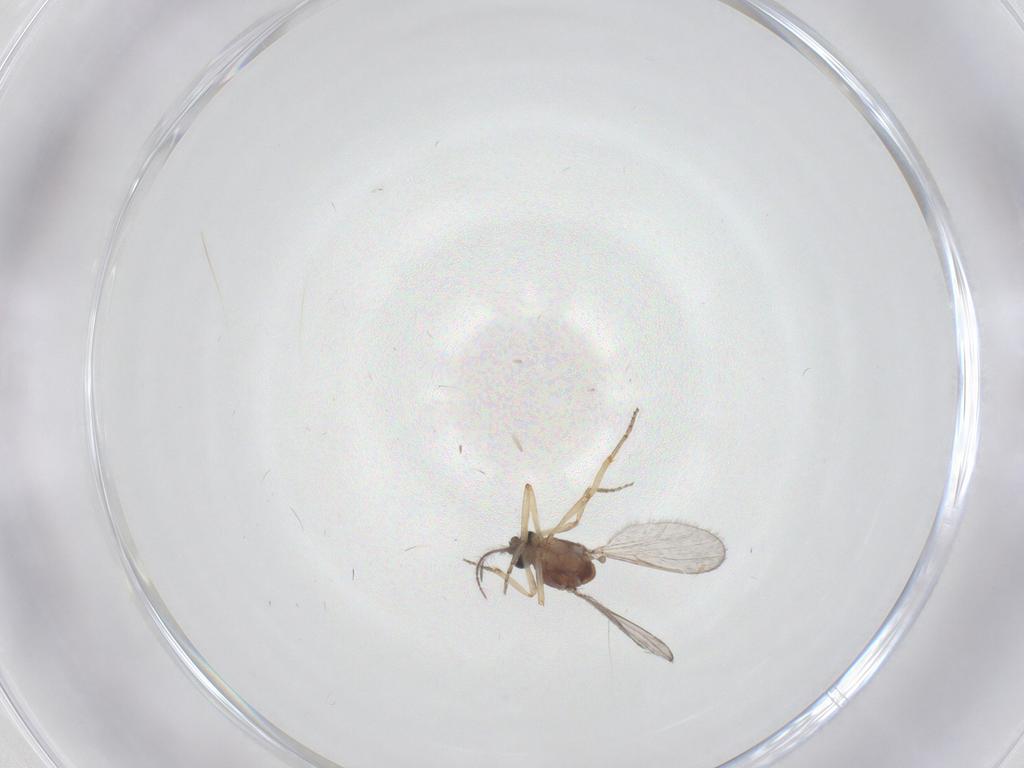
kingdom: Animalia
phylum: Arthropoda
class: Insecta
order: Diptera
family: Ceratopogonidae
